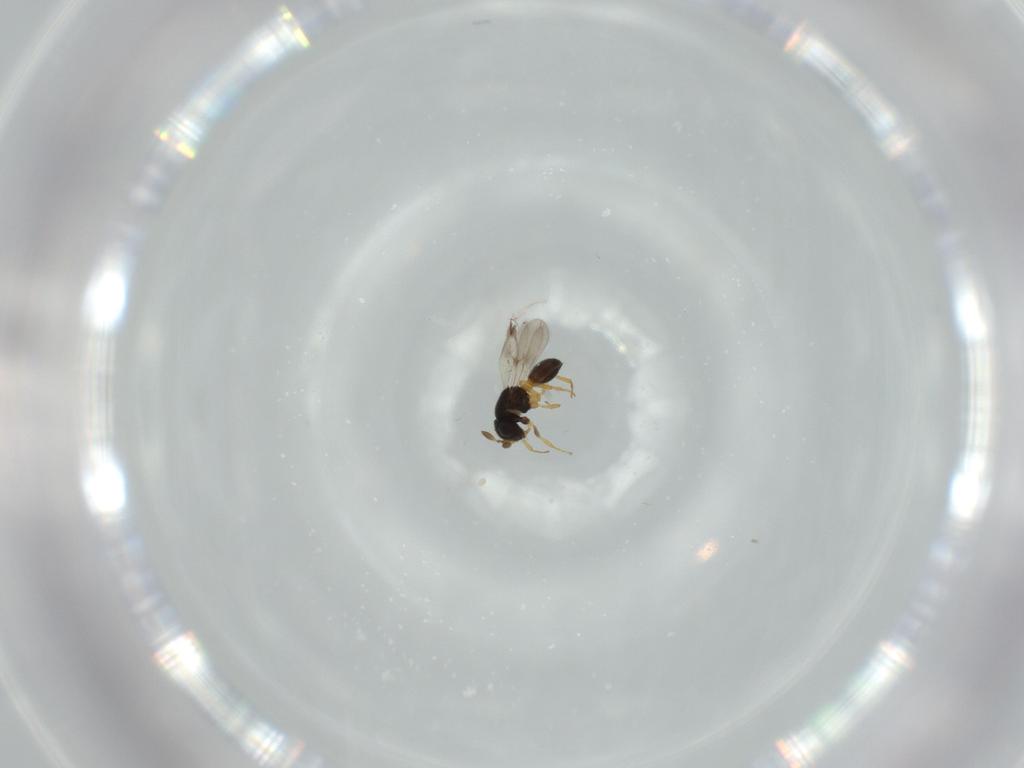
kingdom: Animalia
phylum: Arthropoda
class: Insecta
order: Hymenoptera
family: Scelionidae
